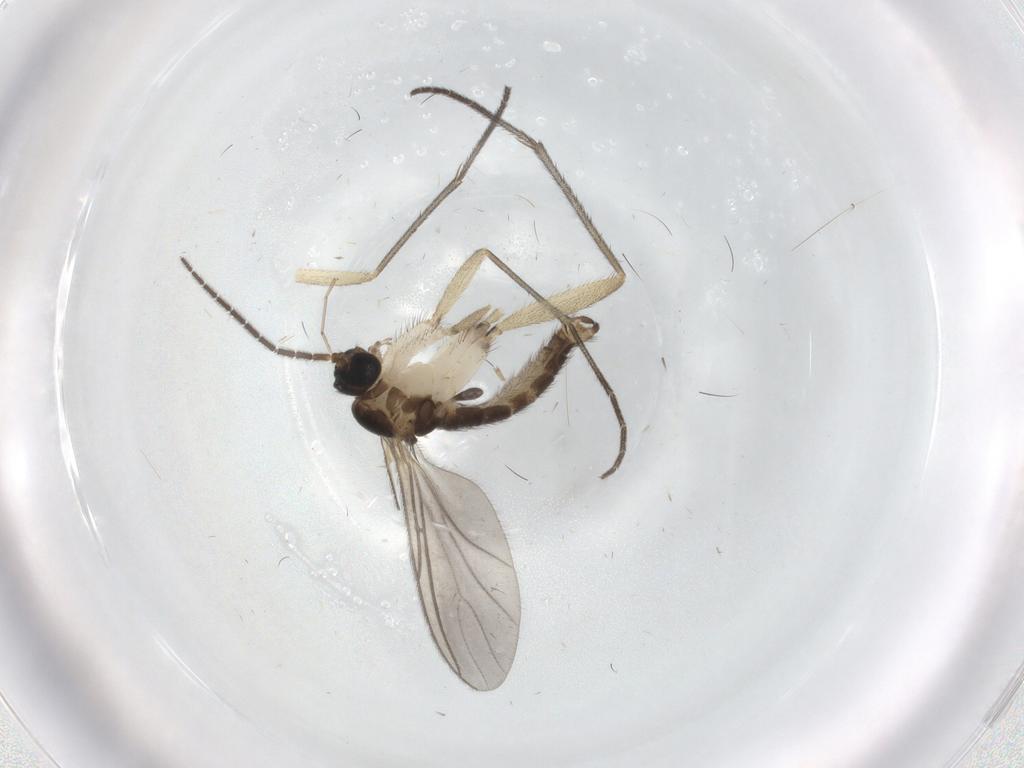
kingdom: Animalia
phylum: Arthropoda
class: Insecta
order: Diptera
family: Sciaridae
